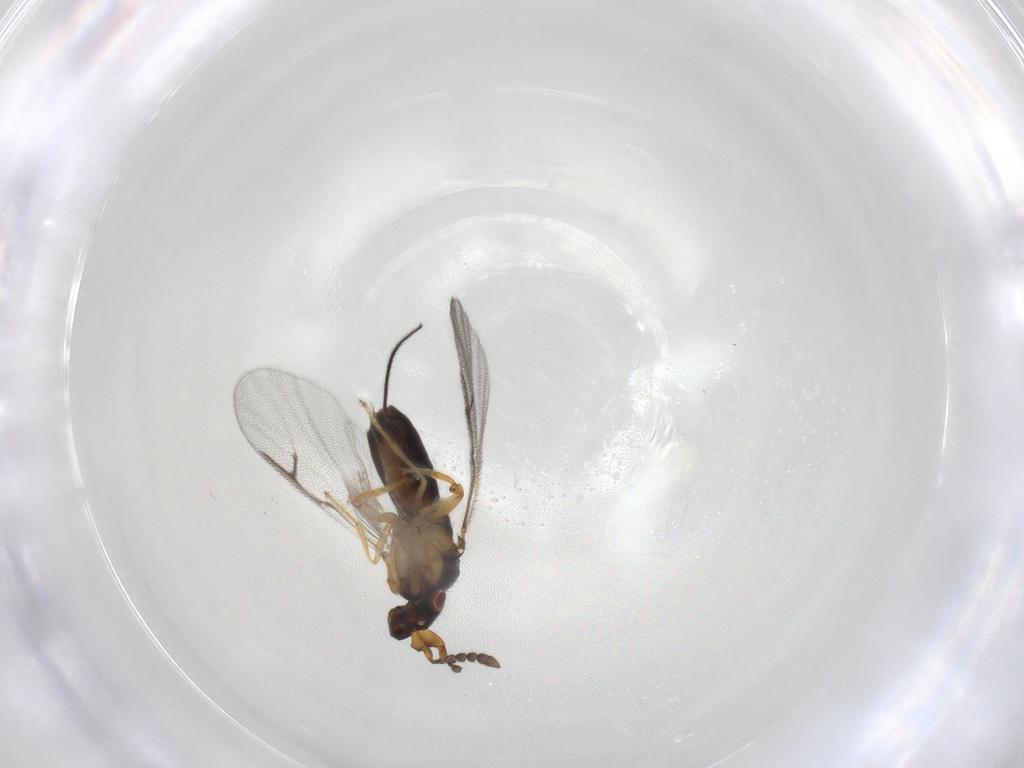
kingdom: Animalia
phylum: Arthropoda
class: Insecta
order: Hymenoptera
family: Agaonidae
